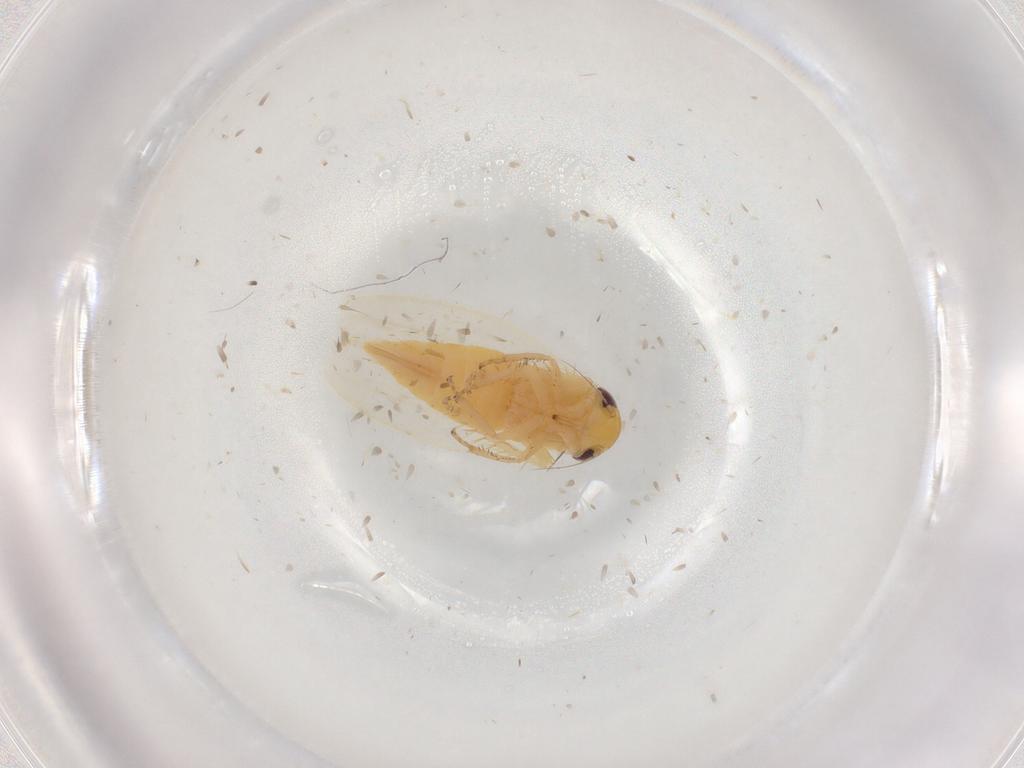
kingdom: Animalia
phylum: Arthropoda
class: Insecta
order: Hemiptera
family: Cicadellidae
